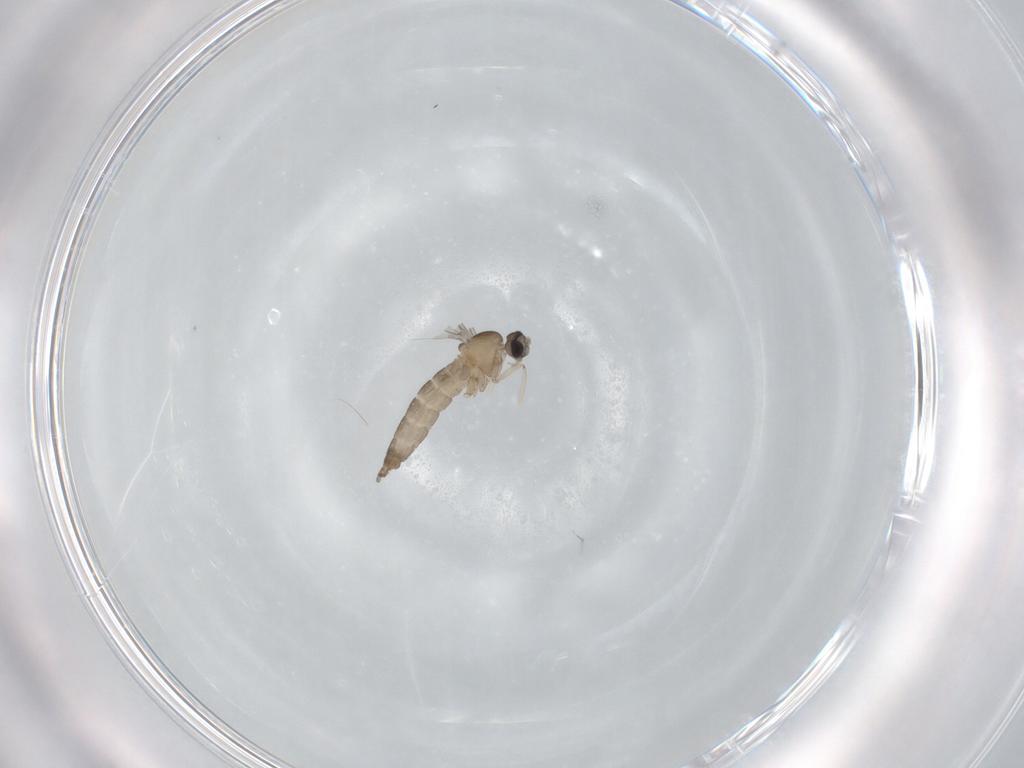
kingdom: Animalia
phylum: Arthropoda
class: Insecta
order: Diptera
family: Cecidomyiidae
